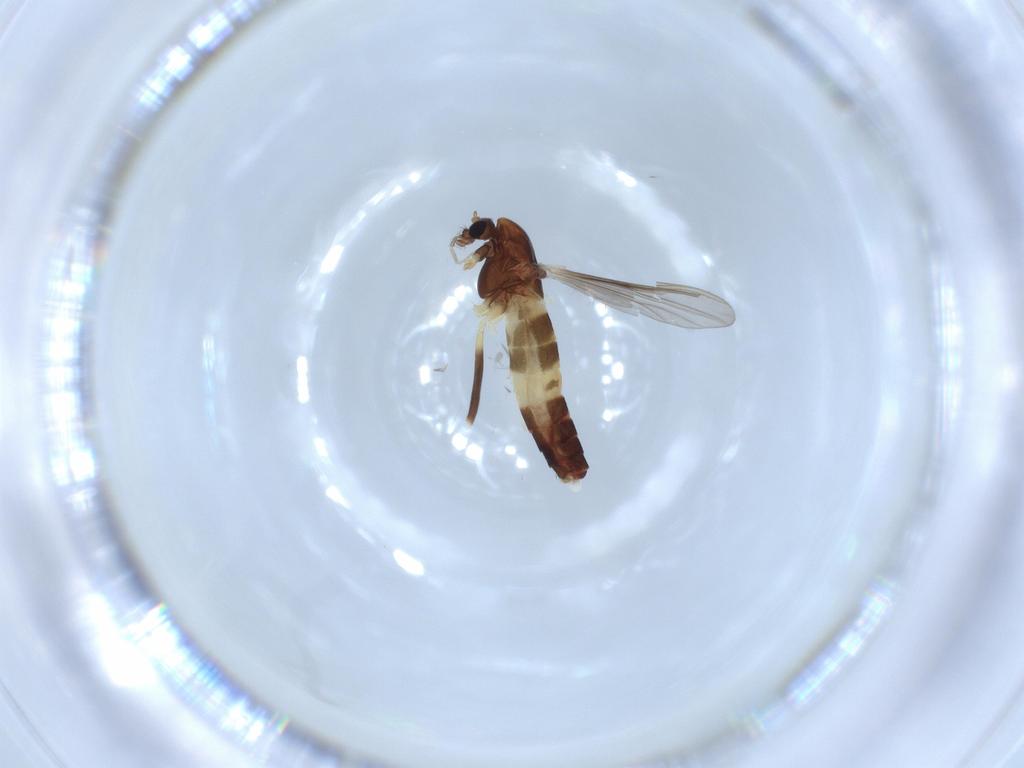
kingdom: Animalia
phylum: Arthropoda
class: Insecta
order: Diptera
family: Chironomidae
